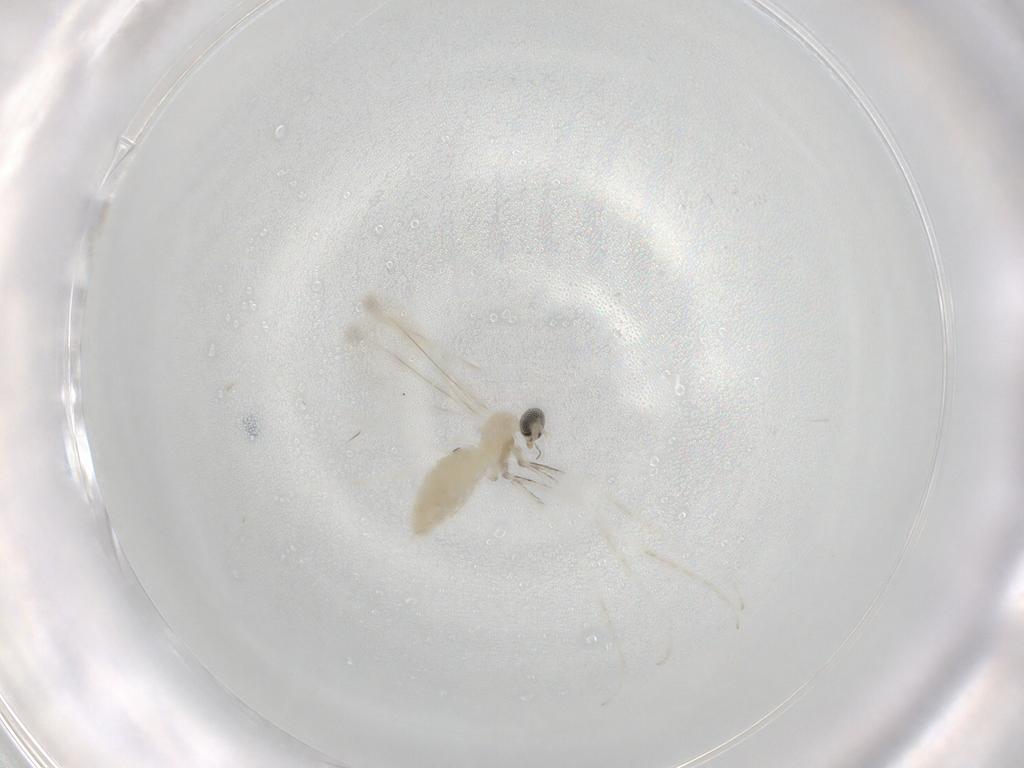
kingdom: Animalia
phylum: Arthropoda
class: Insecta
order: Diptera
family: Cecidomyiidae
